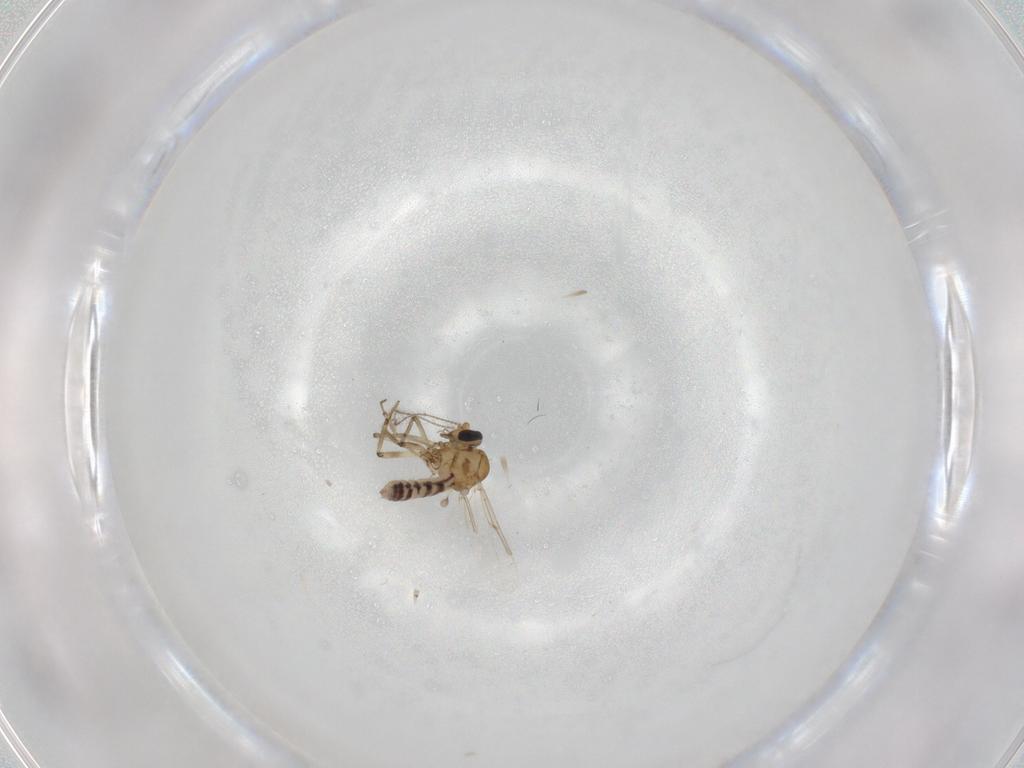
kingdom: Animalia
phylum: Arthropoda
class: Insecta
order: Diptera
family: Ceratopogonidae
